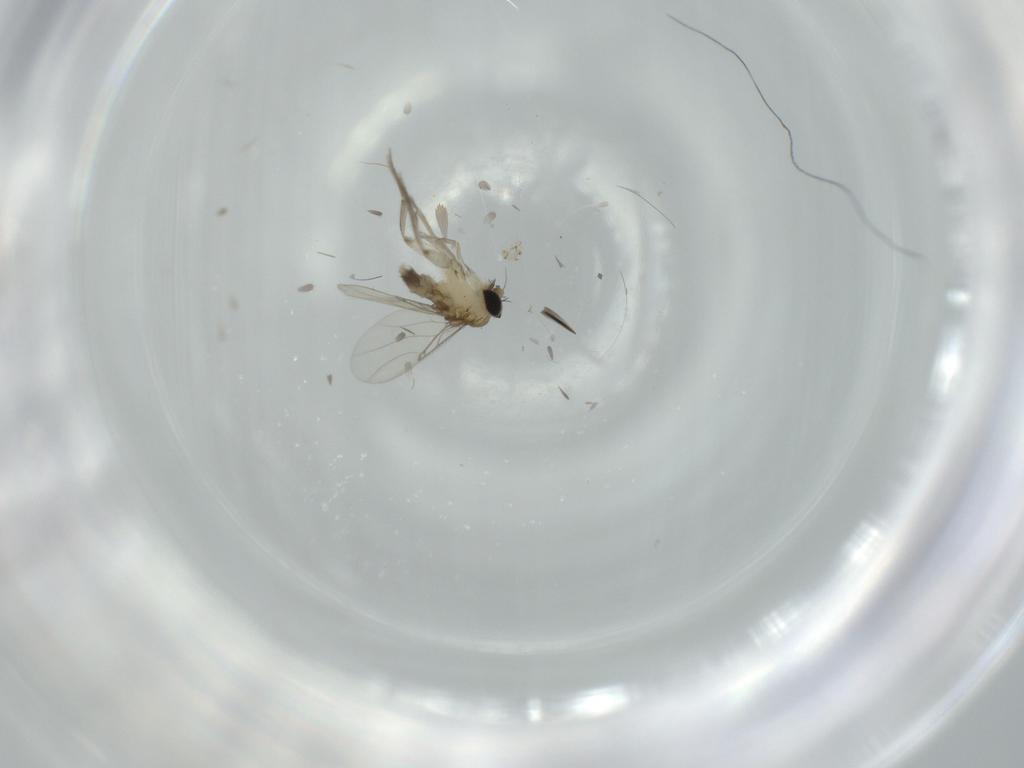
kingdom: Animalia
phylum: Arthropoda
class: Insecta
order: Diptera
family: Phoridae
